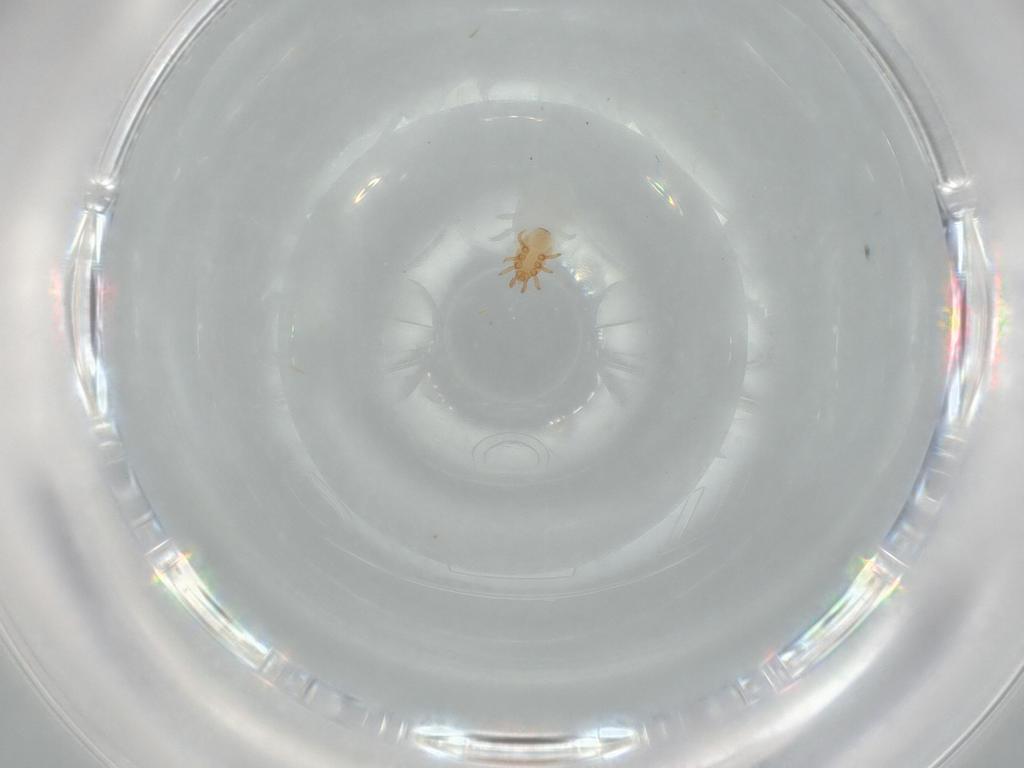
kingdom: Animalia
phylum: Arthropoda
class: Arachnida
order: Mesostigmata
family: Dinychidae
